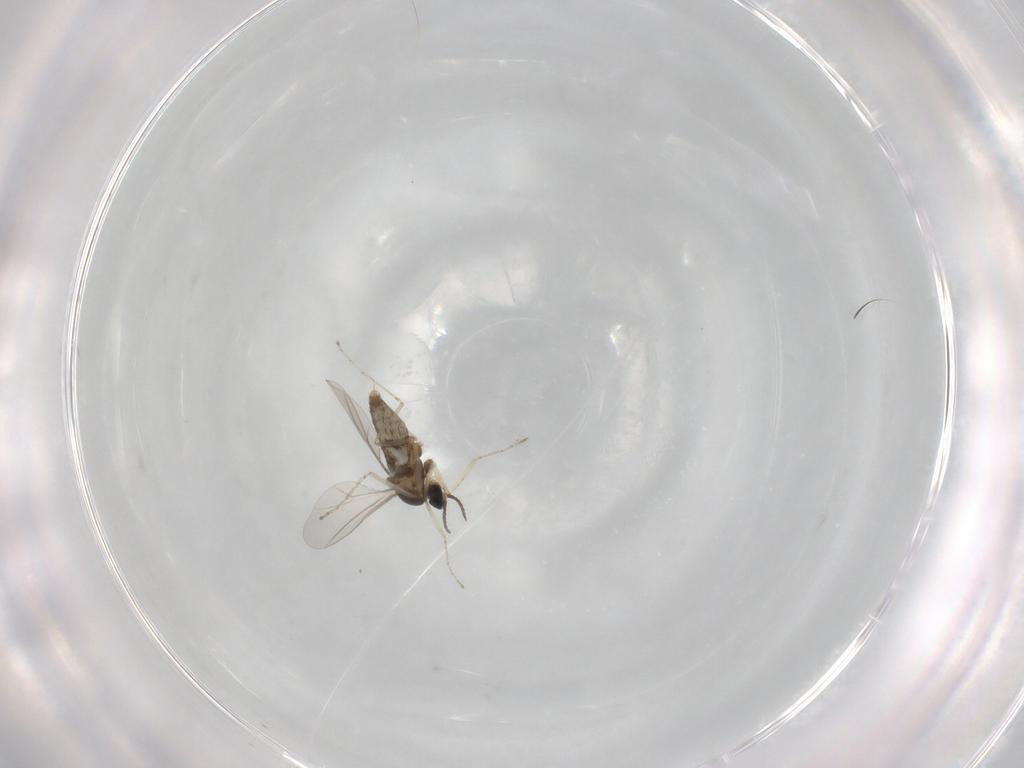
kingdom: Animalia
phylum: Arthropoda
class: Insecta
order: Diptera
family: Cecidomyiidae
